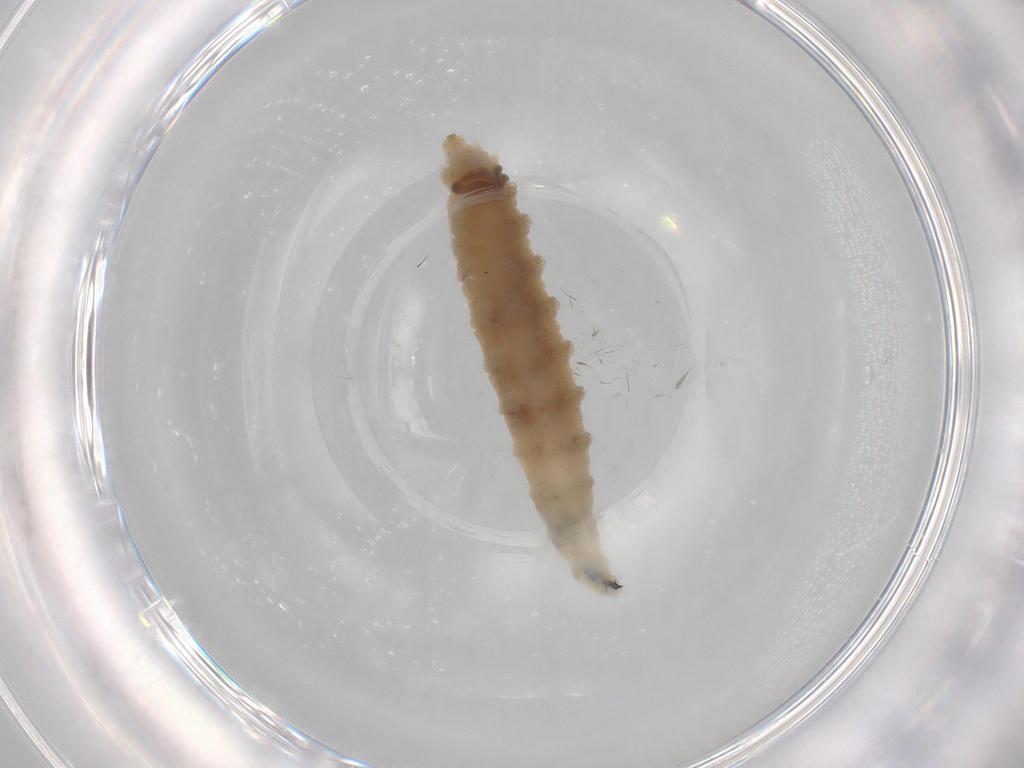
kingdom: Animalia
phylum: Arthropoda
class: Insecta
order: Diptera
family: Drosophilidae
